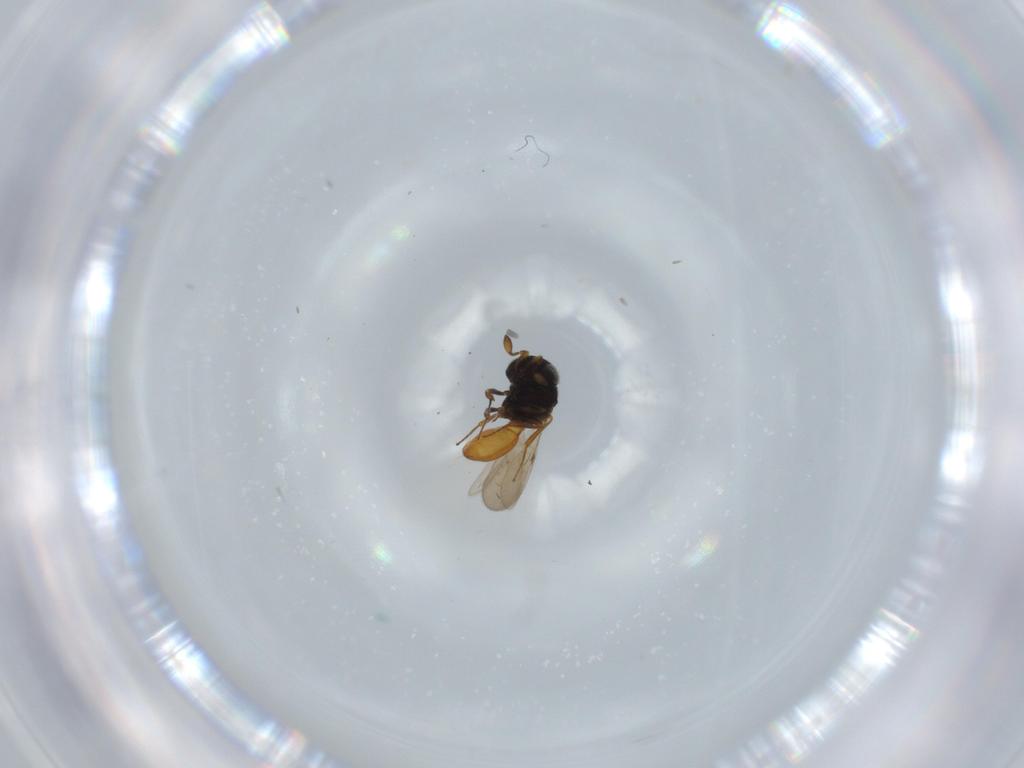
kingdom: Animalia
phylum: Arthropoda
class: Insecta
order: Hymenoptera
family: Scelionidae
